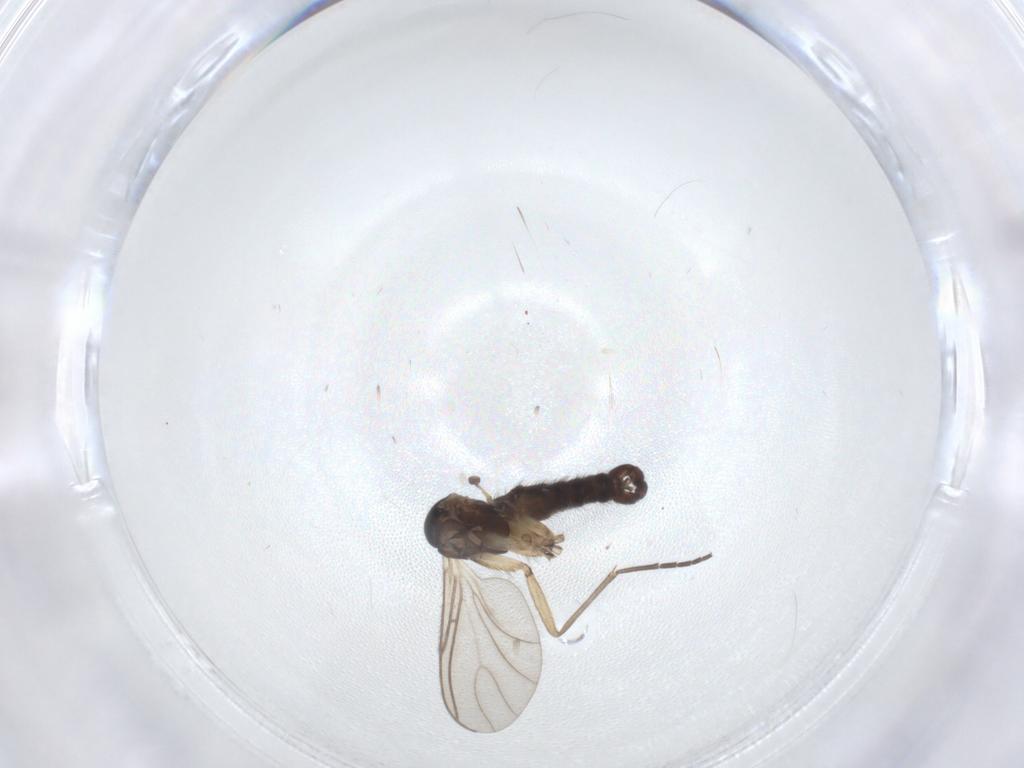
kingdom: Animalia
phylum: Arthropoda
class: Insecta
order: Diptera
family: Sciaridae
